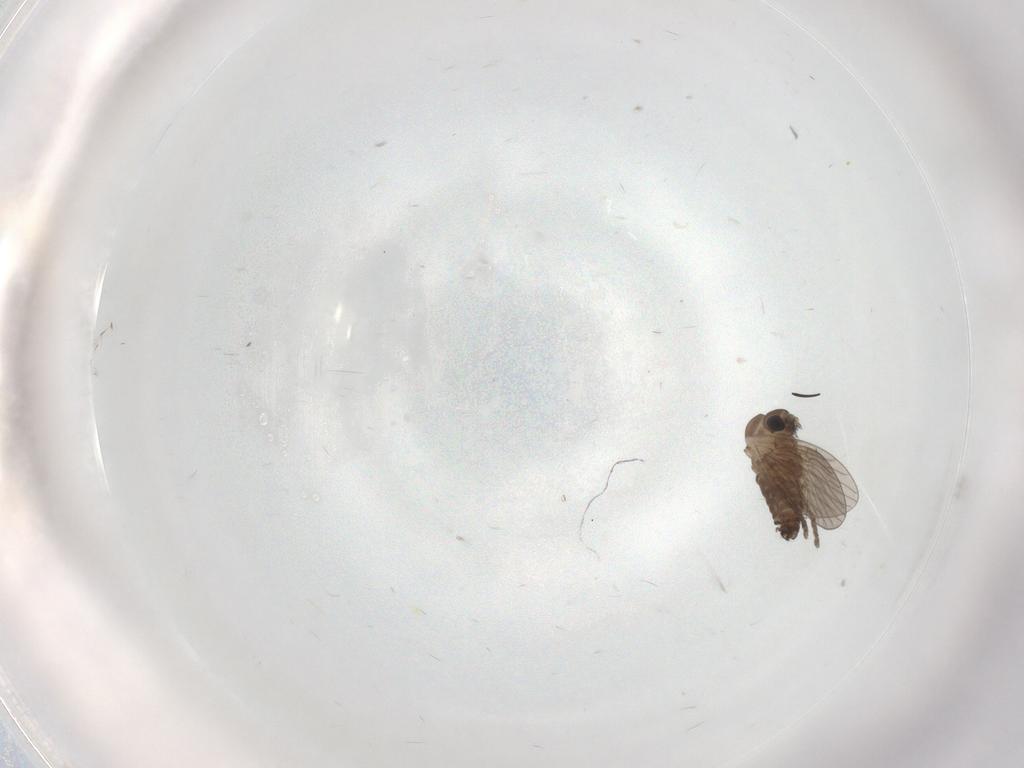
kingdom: Animalia
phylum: Arthropoda
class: Insecta
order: Diptera
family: Psychodidae
